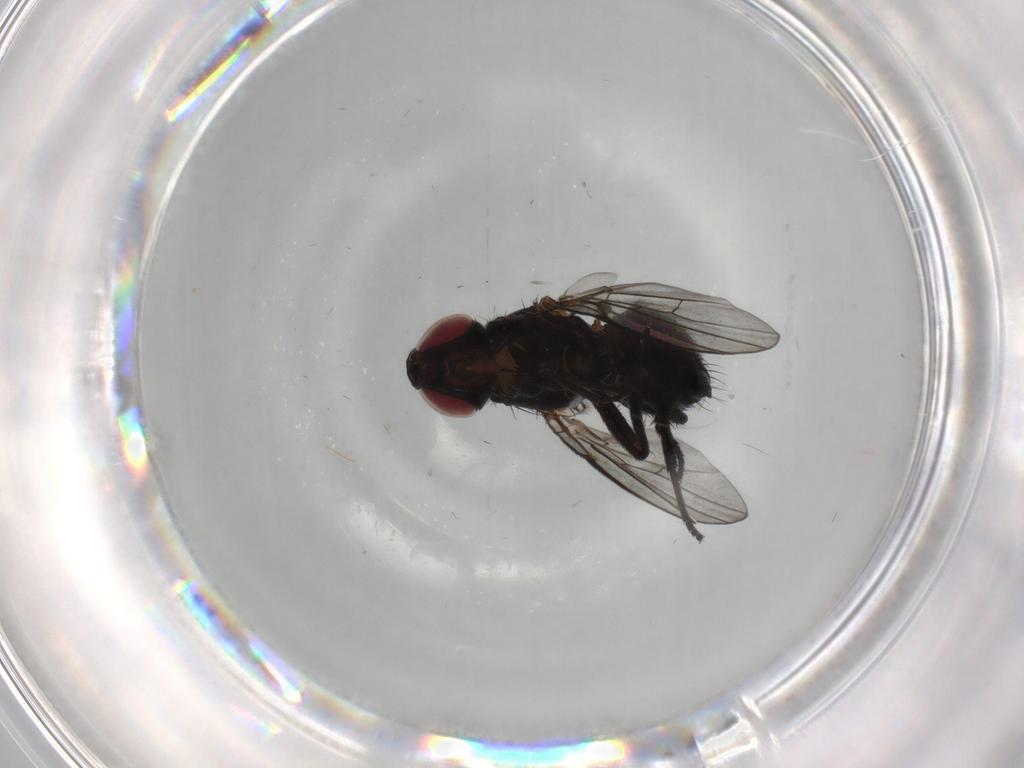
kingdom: Animalia
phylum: Arthropoda
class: Insecta
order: Diptera
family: Agromyzidae
